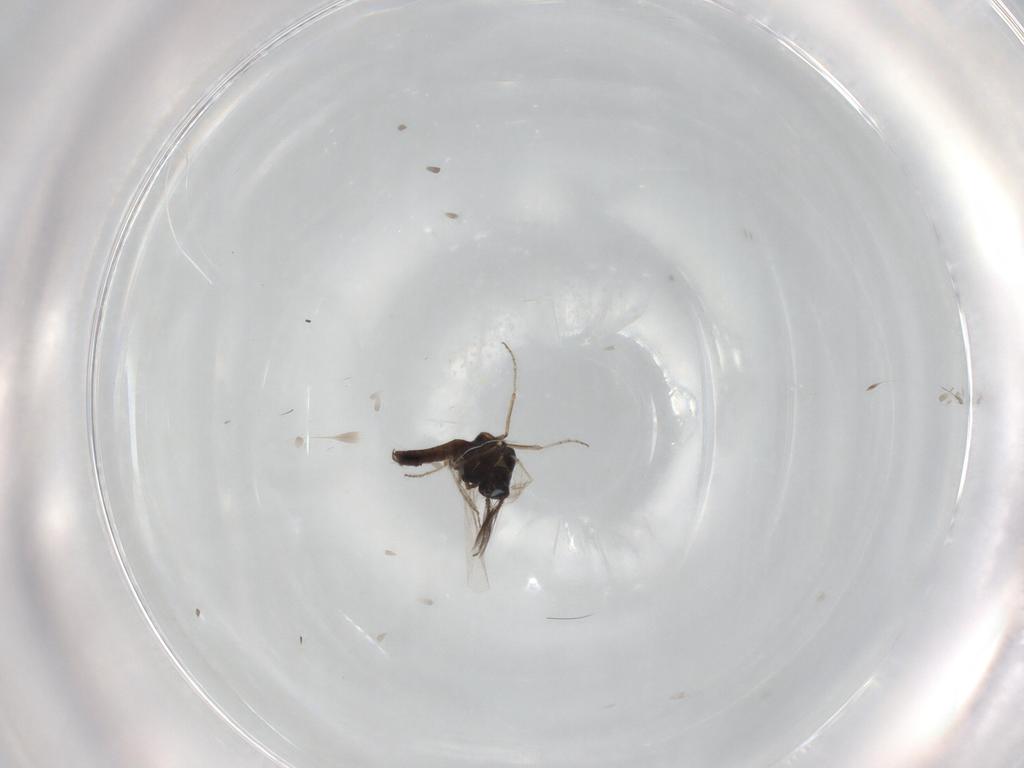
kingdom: Animalia
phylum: Arthropoda
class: Insecta
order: Diptera
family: Ceratopogonidae
